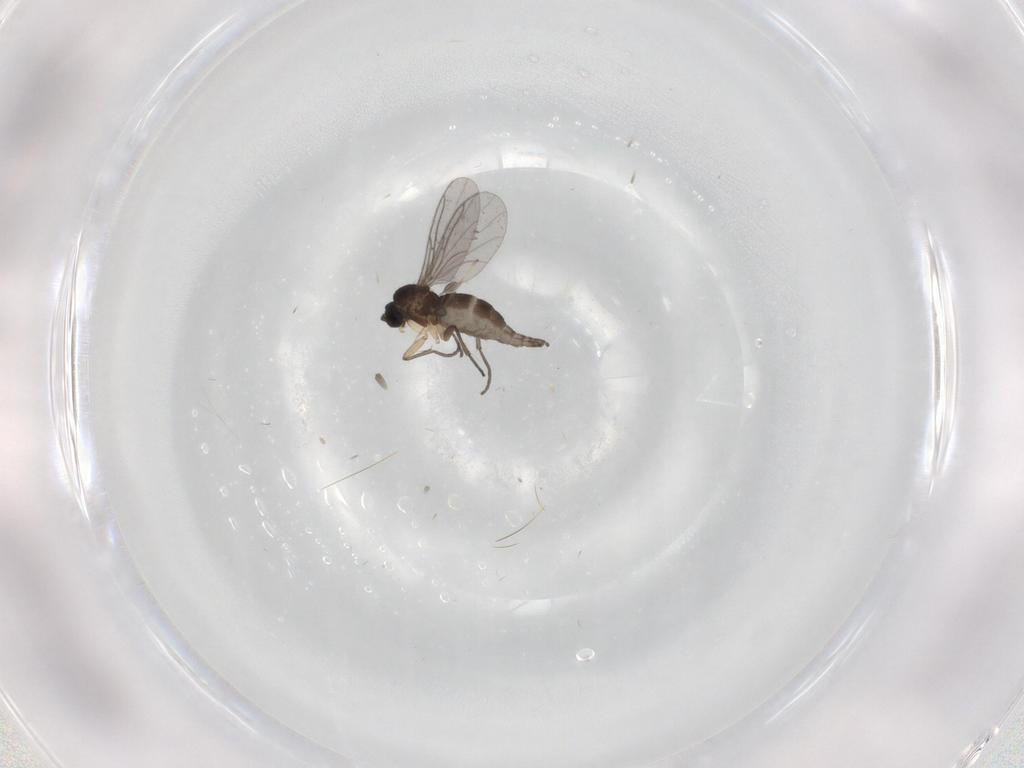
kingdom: Animalia
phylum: Arthropoda
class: Insecta
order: Diptera
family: Sciaridae
